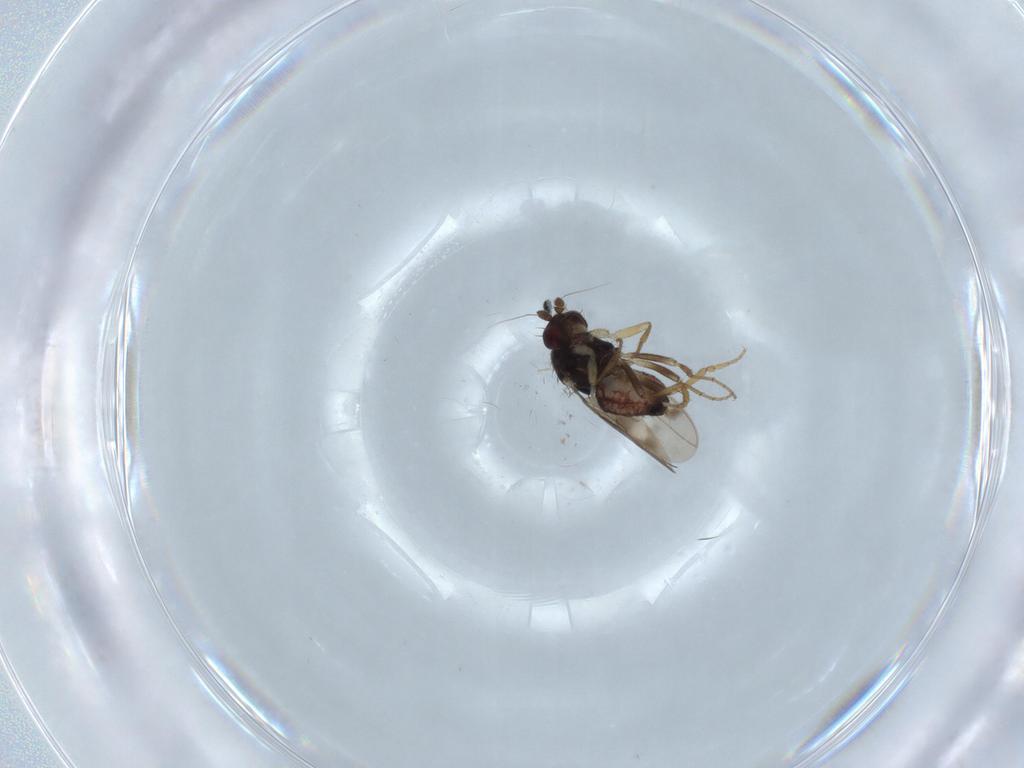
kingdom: Animalia
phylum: Arthropoda
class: Insecta
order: Diptera
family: Sphaeroceridae
